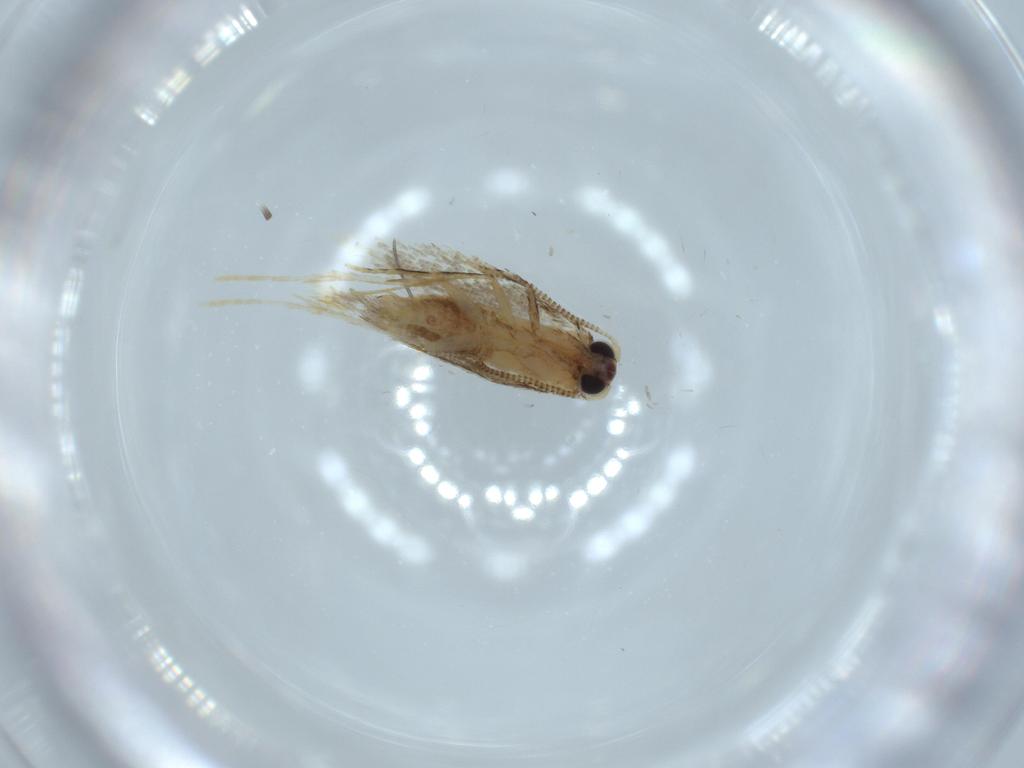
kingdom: Animalia
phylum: Arthropoda
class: Insecta
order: Lepidoptera
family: Tineidae
